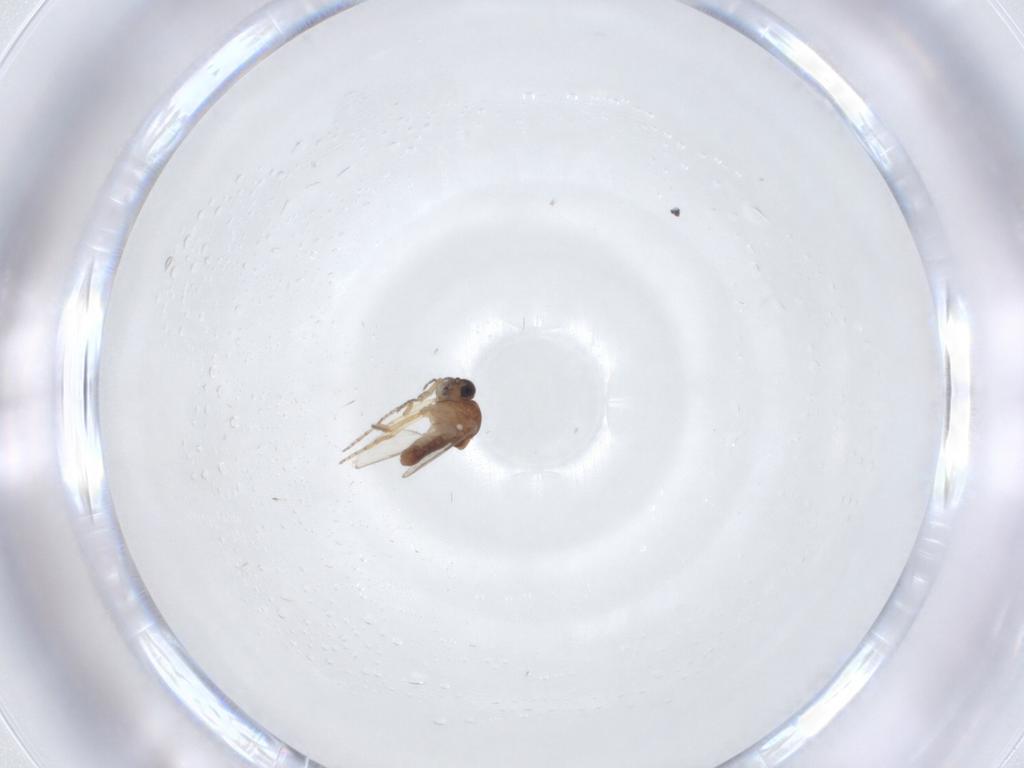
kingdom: Animalia
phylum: Arthropoda
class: Insecta
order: Diptera
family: Ceratopogonidae
